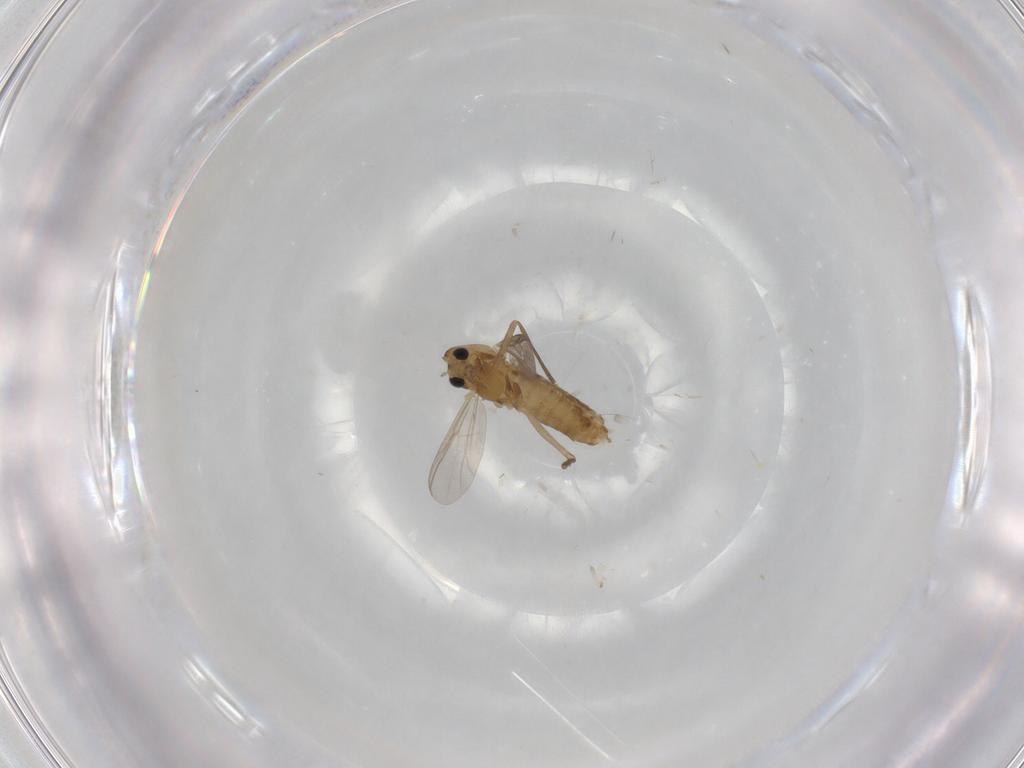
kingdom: Animalia
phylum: Arthropoda
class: Insecta
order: Diptera
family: Chironomidae
